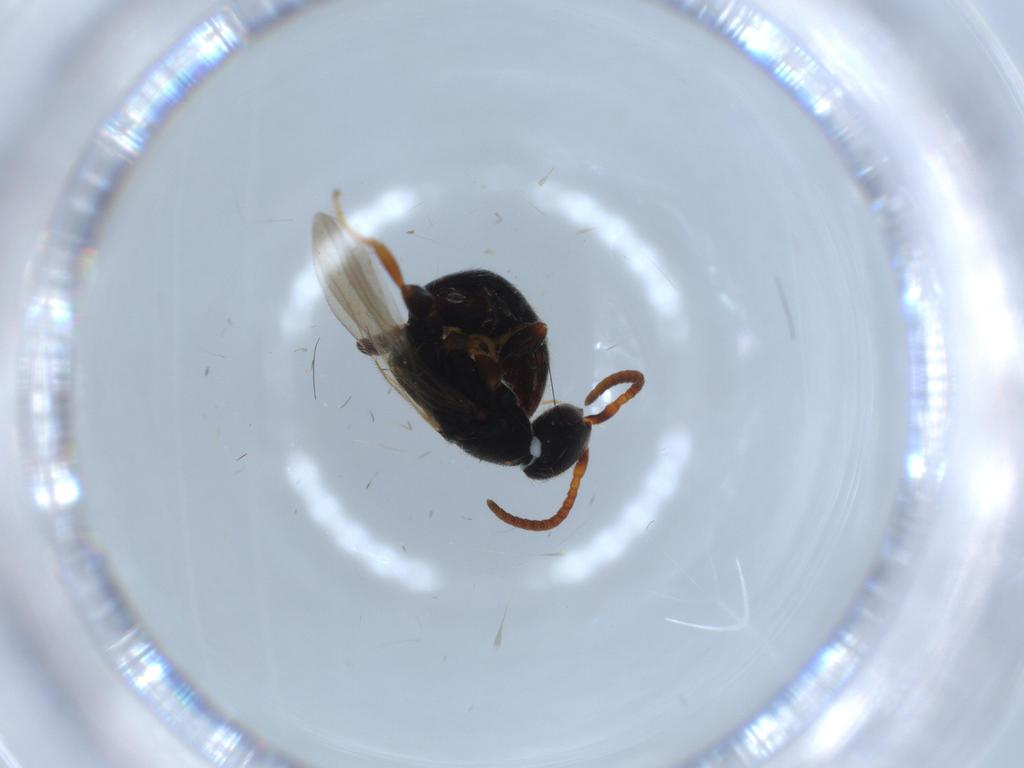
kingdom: Animalia
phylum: Arthropoda
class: Insecta
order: Hymenoptera
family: Bethylidae
